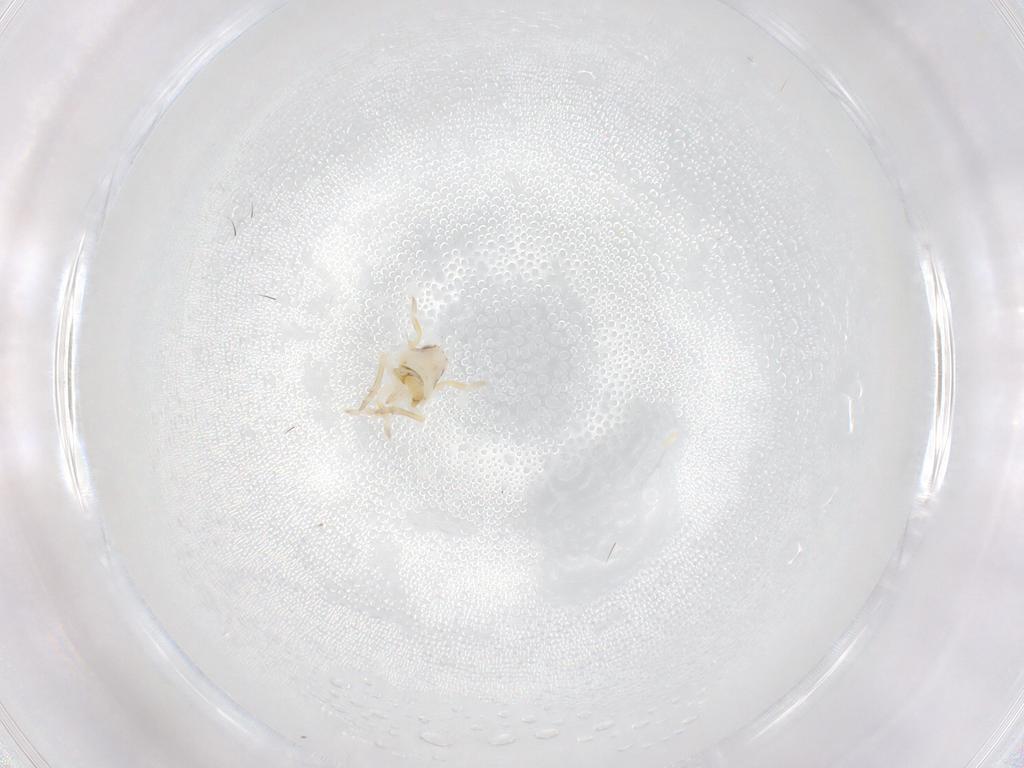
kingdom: Animalia
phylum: Arthropoda
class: Insecta
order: Hemiptera
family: Flatidae
